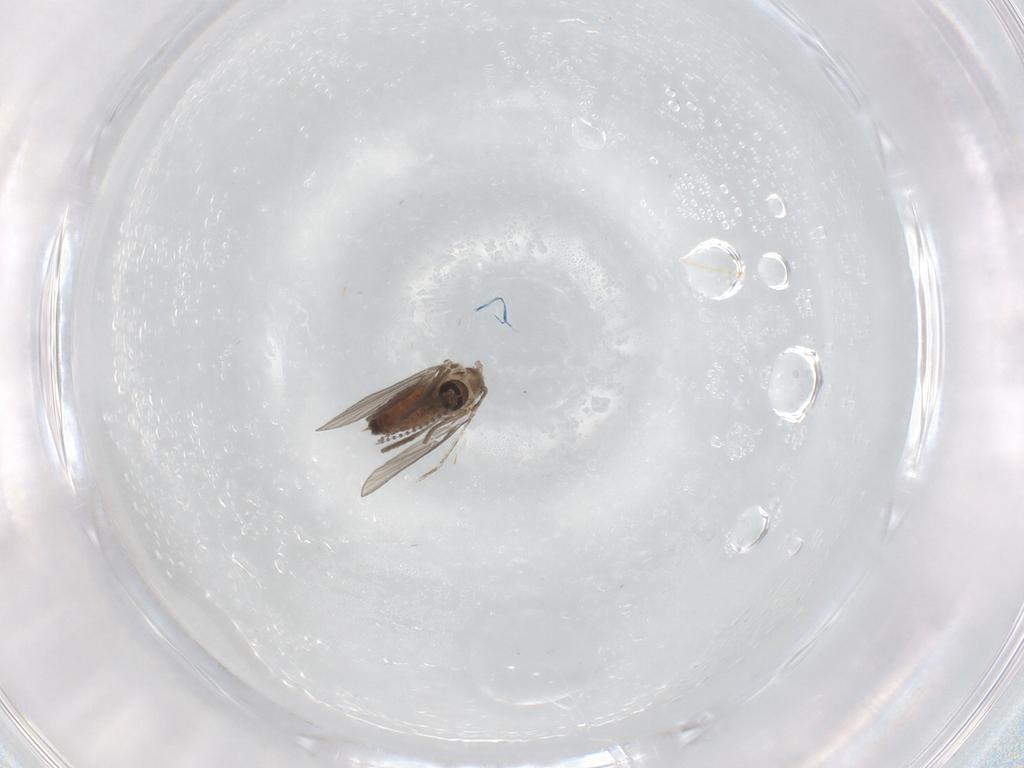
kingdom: Animalia
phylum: Arthropoda
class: Insecta
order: Diptera
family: Psychodidae
